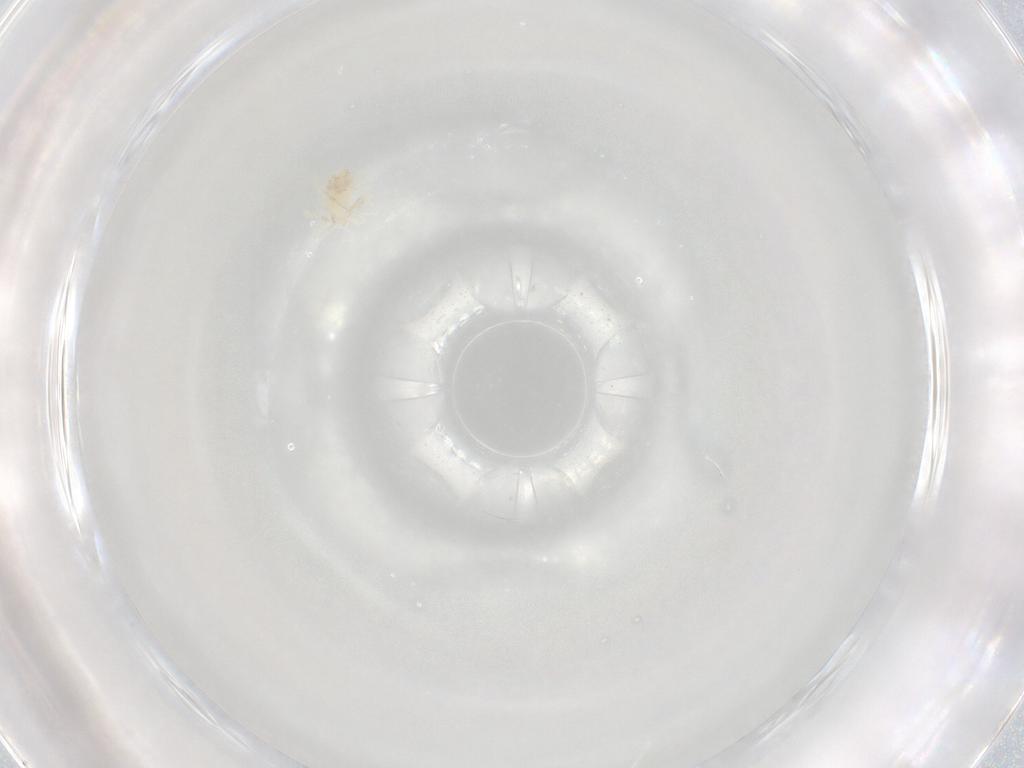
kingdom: Animalia
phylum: Arthropoda
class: Arachnida
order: Trombidiformes
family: Anystidae
